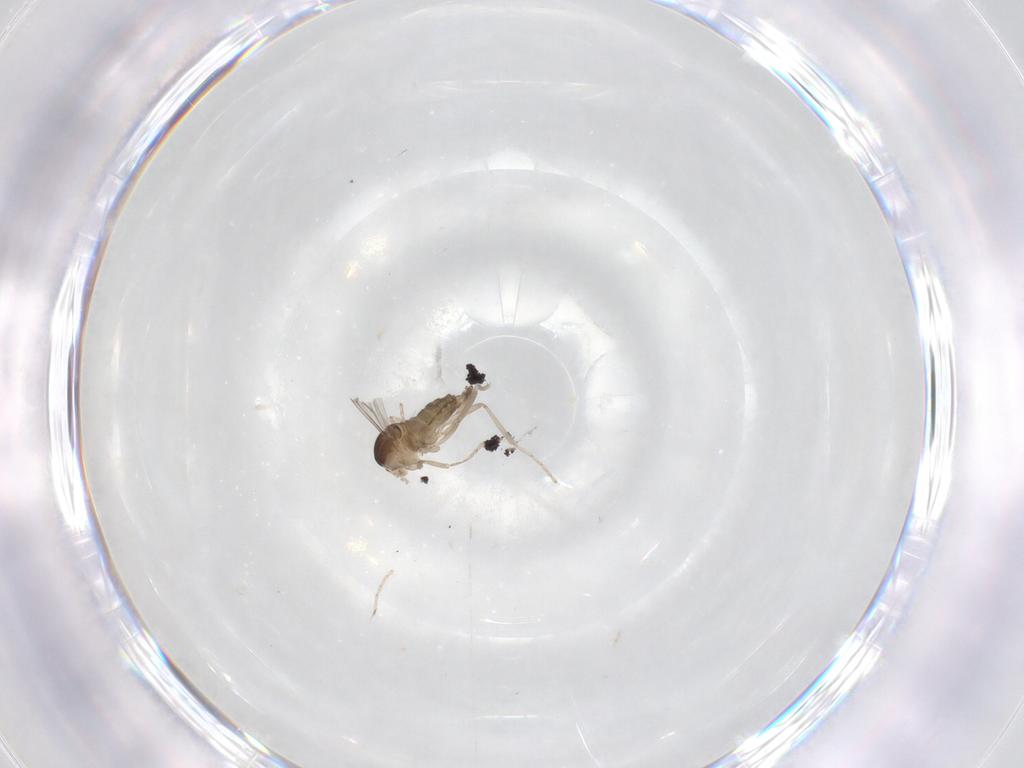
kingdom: Animalia
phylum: Arthropoda
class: Insecta
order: Diptera
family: Cecidomyiidae
